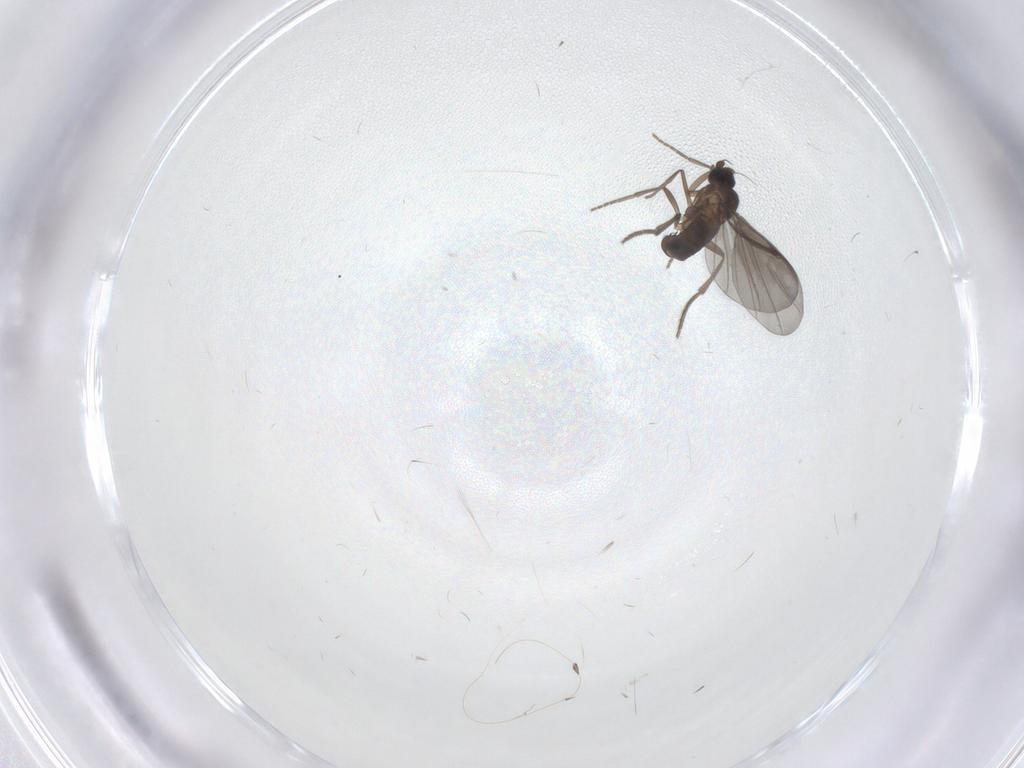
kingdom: Animalia
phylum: Arthropoda
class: Insecta
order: Diptera
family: Phoridae
